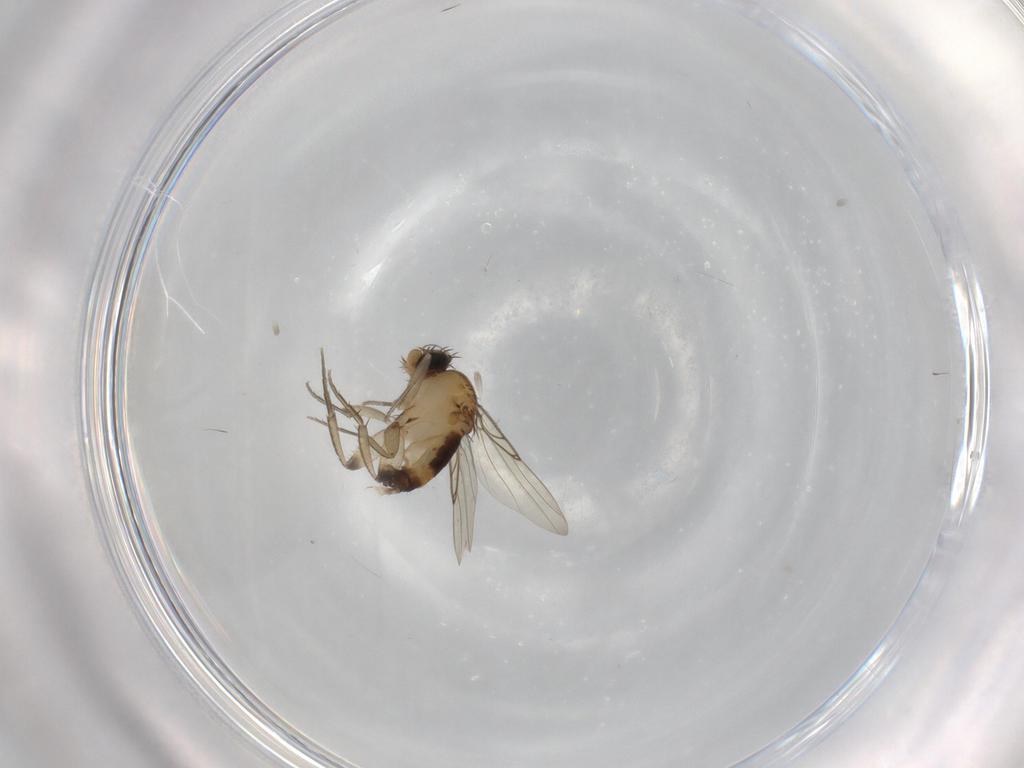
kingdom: Animalia
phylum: Arthropoda
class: Insecta
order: Diptera
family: Phoridae
